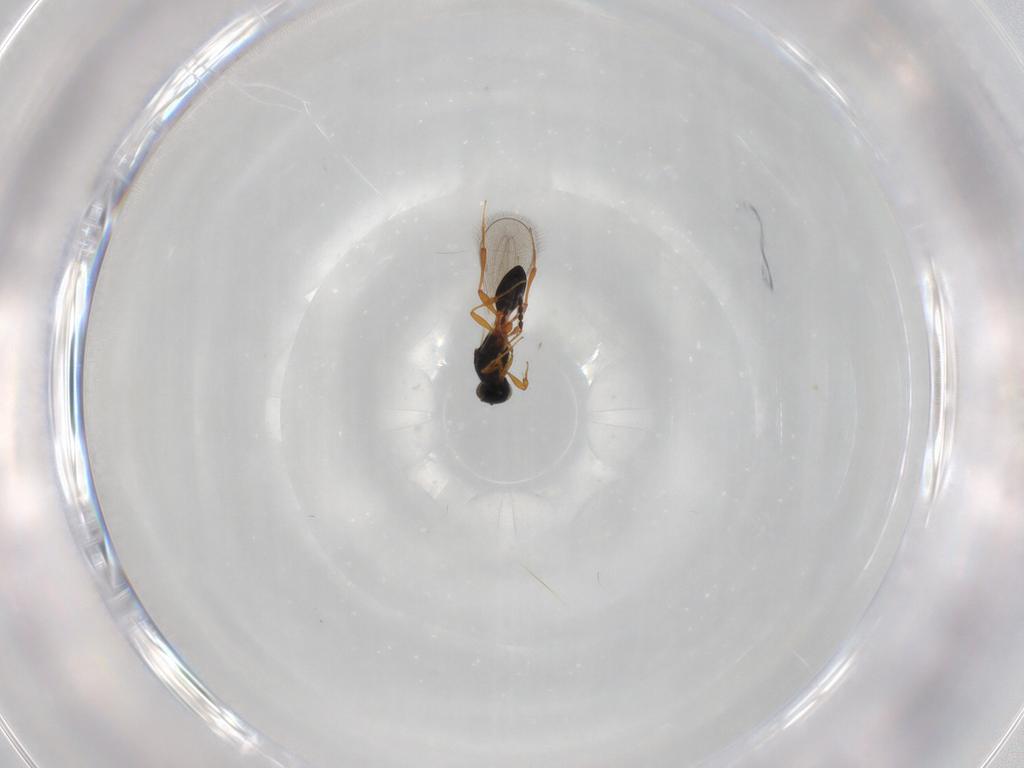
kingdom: Animalia
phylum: Arthropoda
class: Insecta
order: Hymenoptera
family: Platygastridae
